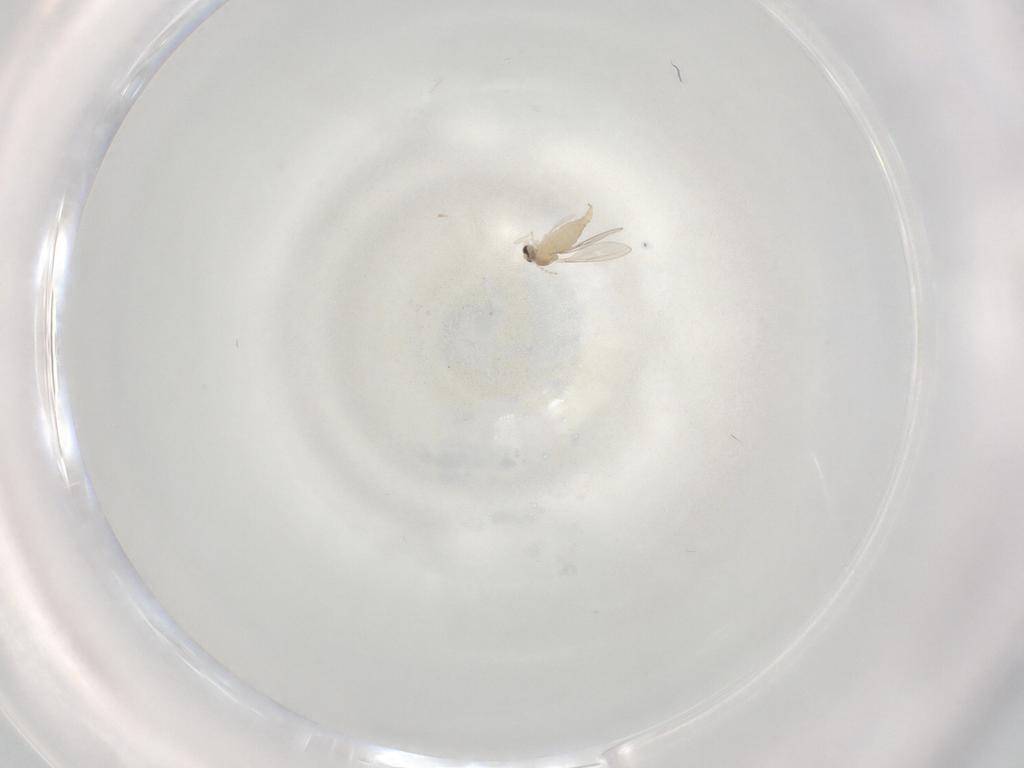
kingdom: Animalia
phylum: Arthropoda
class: Insecta
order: Diptera
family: Cecidomyiidae
